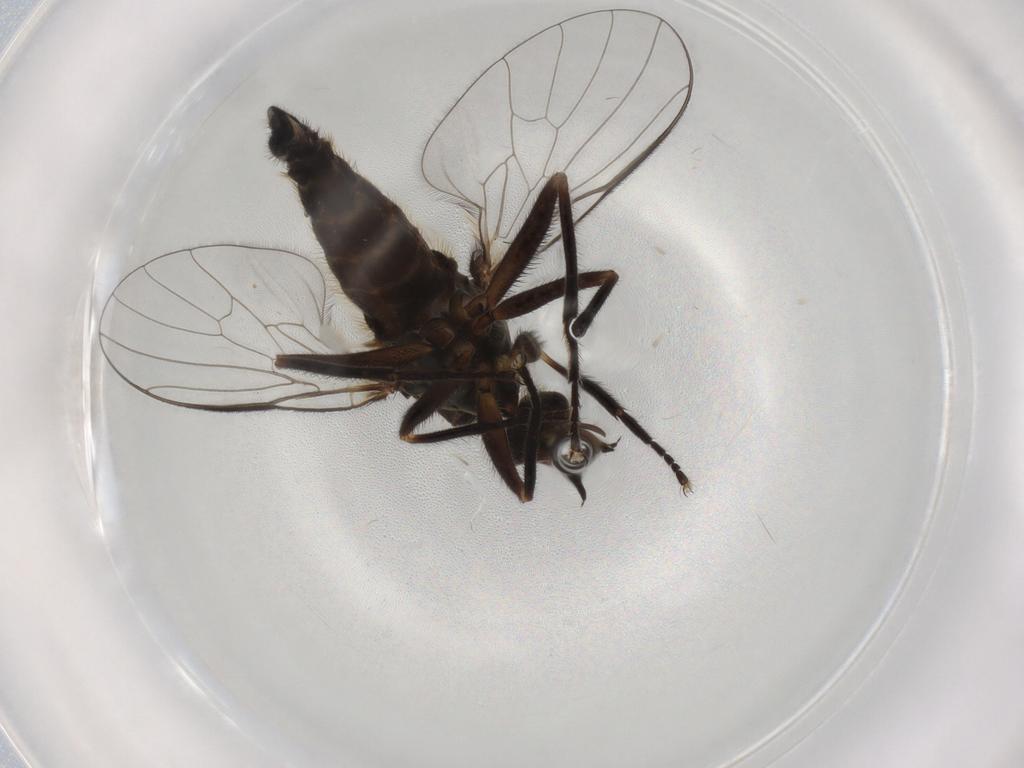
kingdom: Animalia
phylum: Arthropoda
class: Insecta
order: Diptera
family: Empididae
